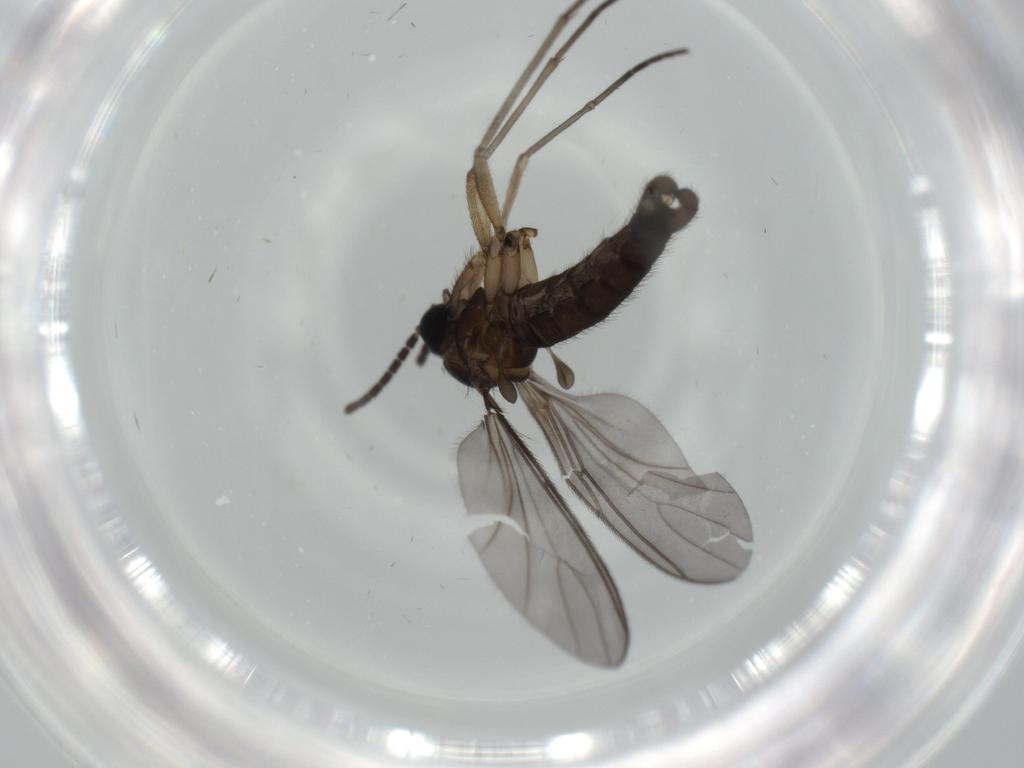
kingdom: Animalia
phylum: Arthropoda
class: Insecta
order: Diptera
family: Sciaridae
